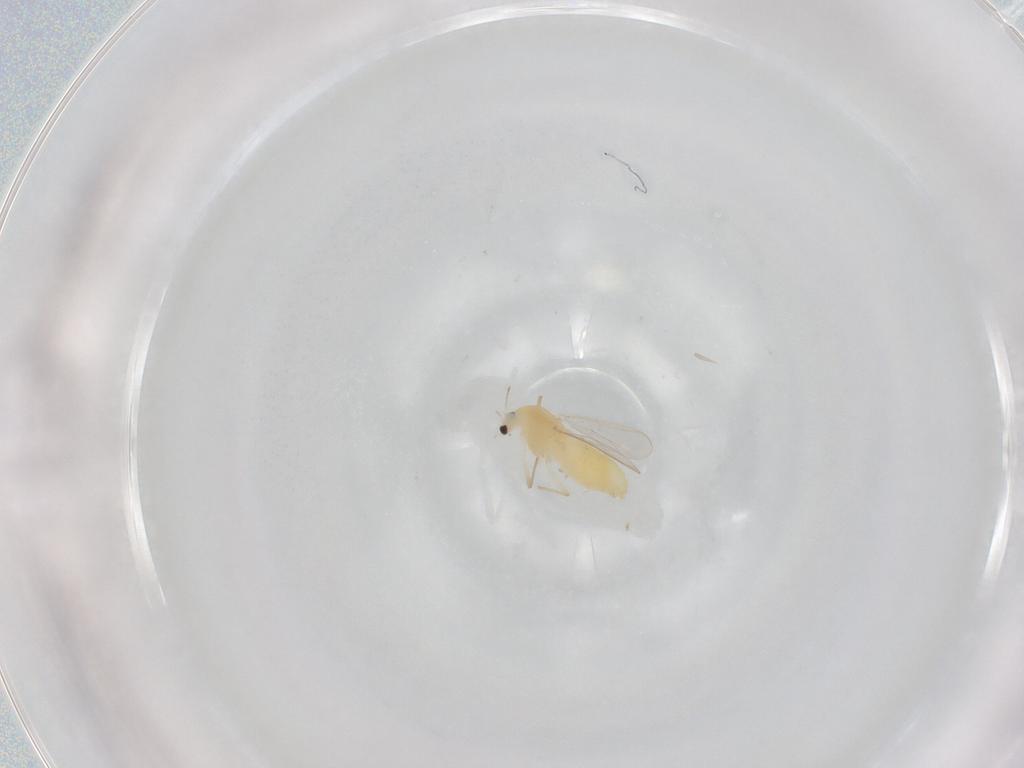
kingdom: Animalia
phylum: Arthropoda
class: Insecta
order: Diptera
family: Chironomidae
